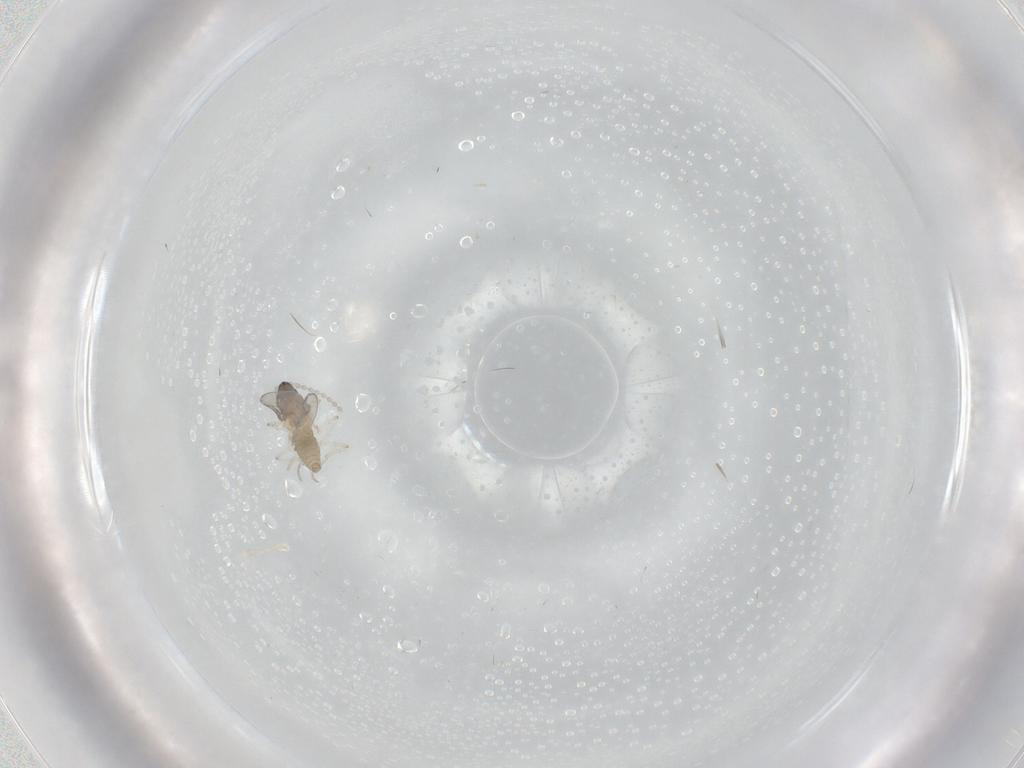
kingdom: Animalia
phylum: Arthropoda
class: Insecta
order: Diptera
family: Cecidomyiidae
